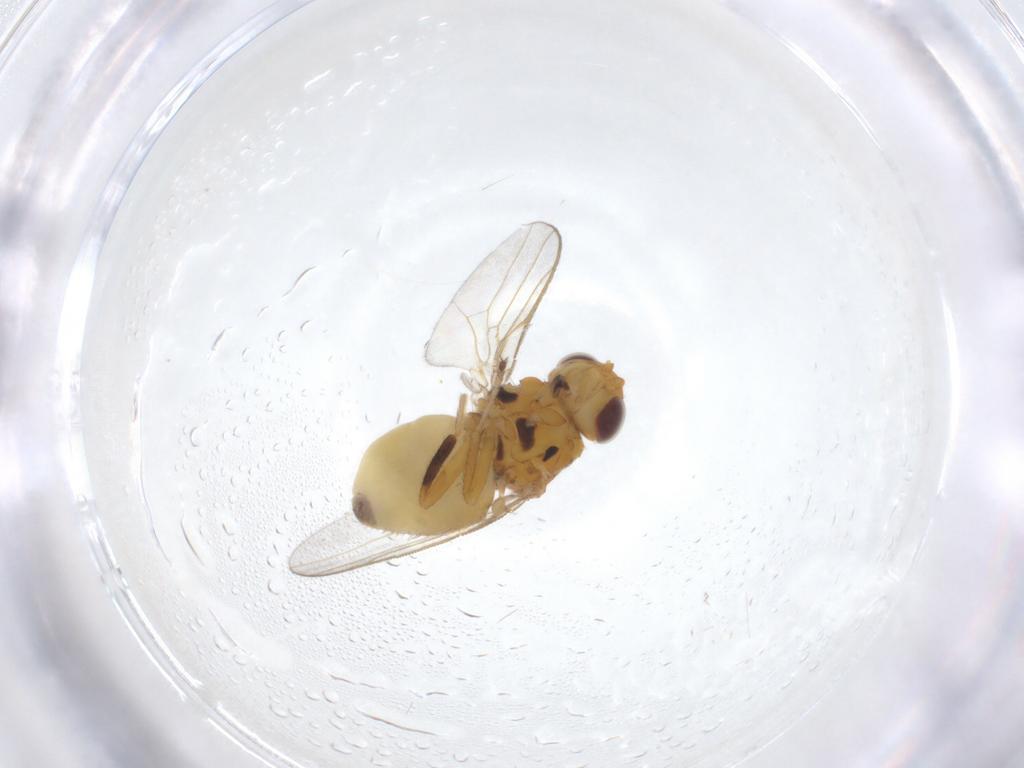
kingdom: Animalia
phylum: Arthropoda
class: Insecta
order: Diptera
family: Chloropidae
